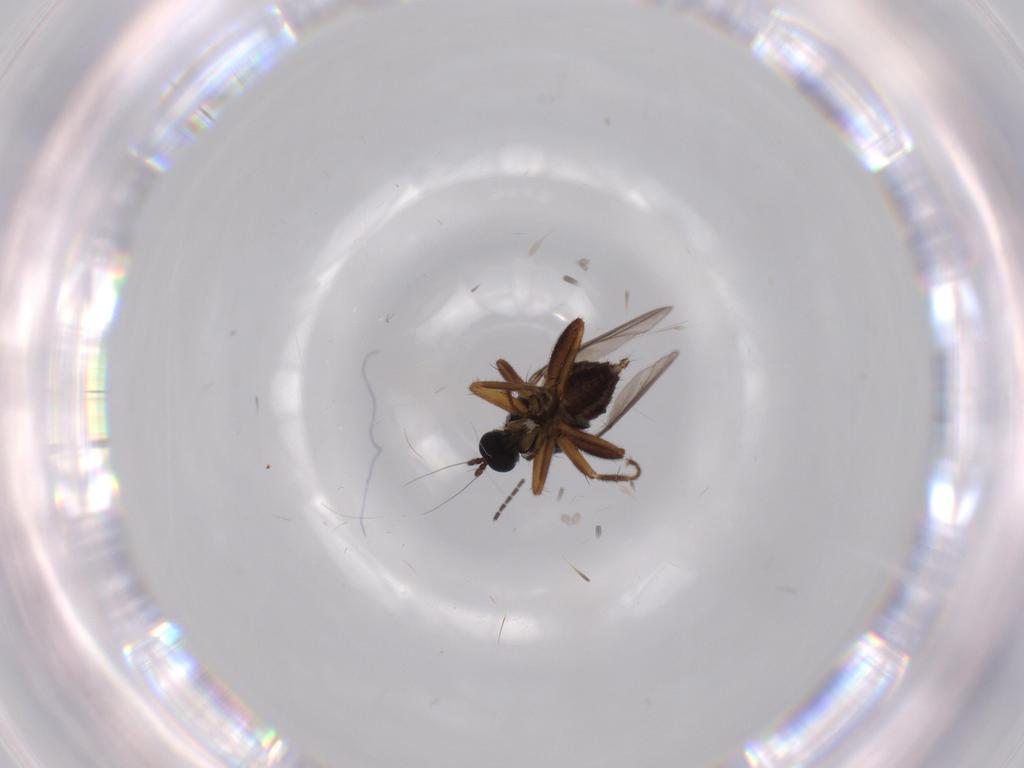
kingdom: Animalia
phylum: Arthropoda
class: Insecta
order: Diptera
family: Hybotidae
